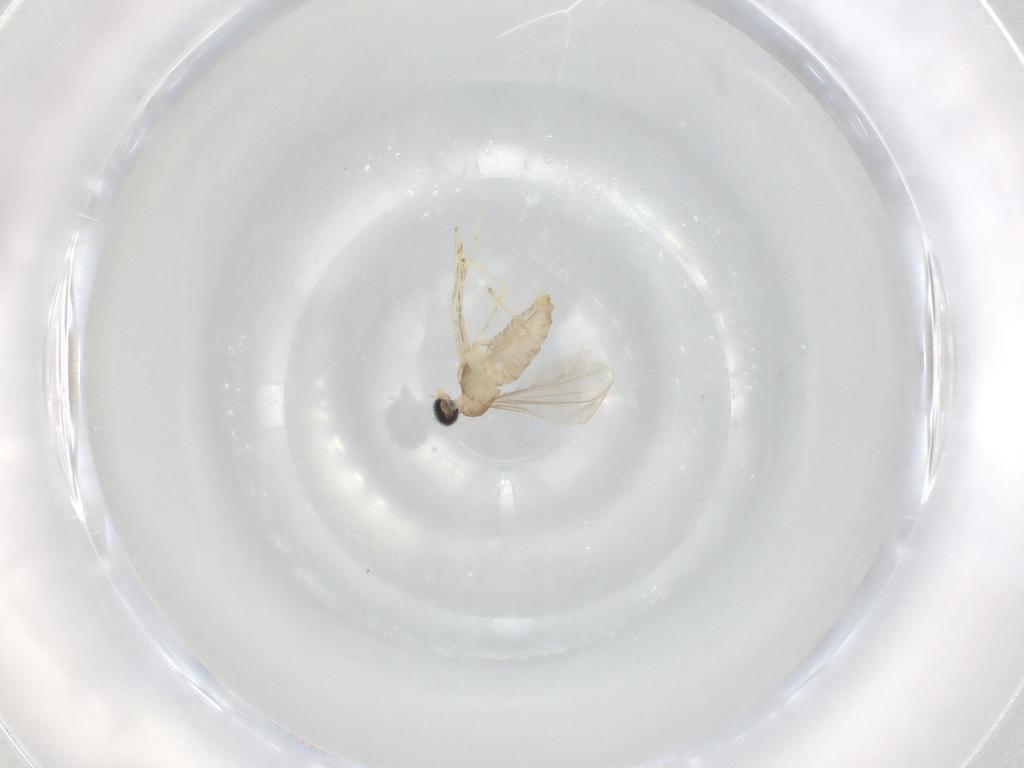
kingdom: Animalia
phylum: Arthropoda
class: Insecta
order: Diptera
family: Cecidomyiidae
